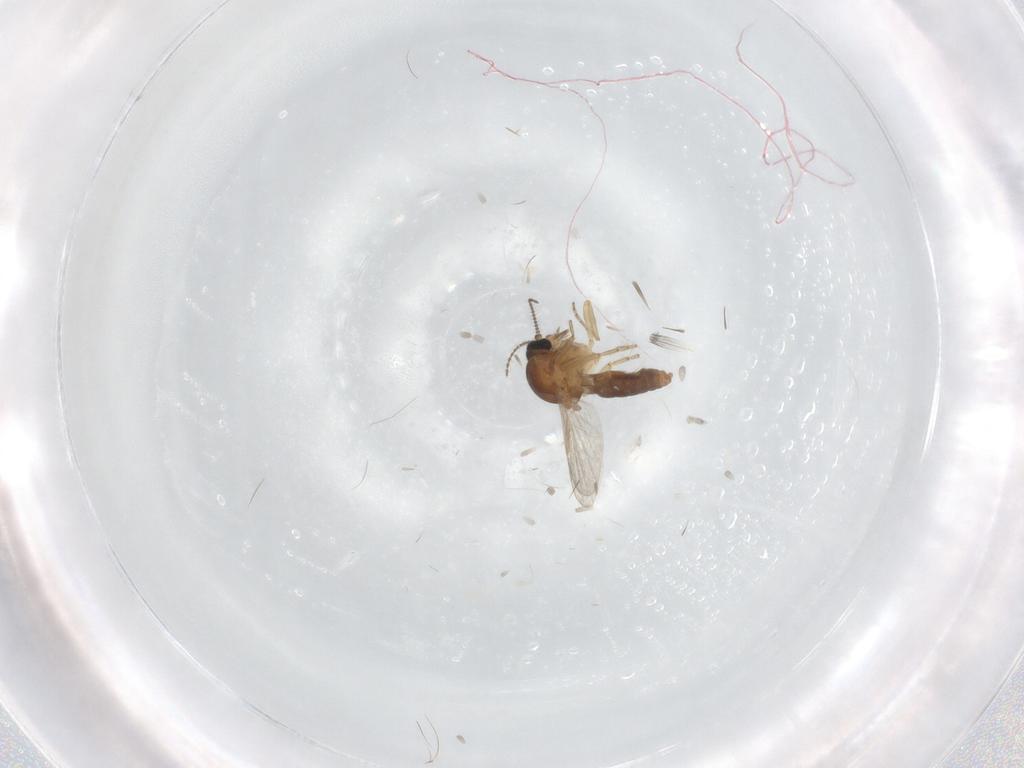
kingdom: Animalia
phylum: Arthropoda
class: Insecta
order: Diptera
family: Ceratopogonidae
